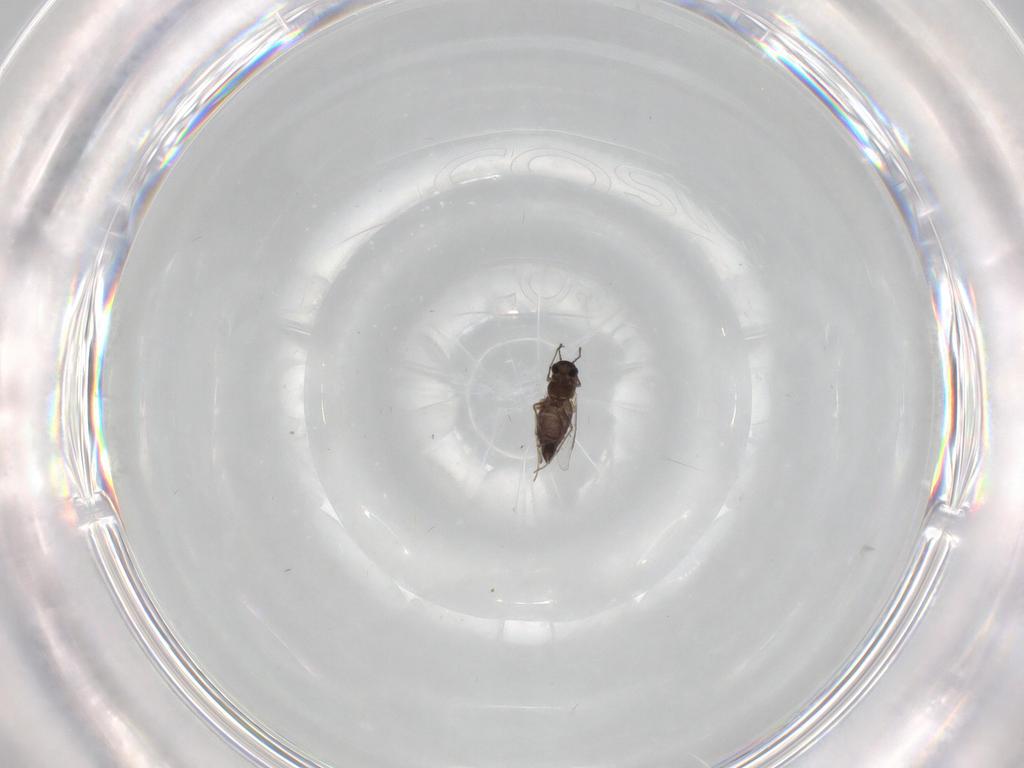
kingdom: Animalia
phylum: Arthropoda
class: Insecta
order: Diptera
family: Chironomidae
